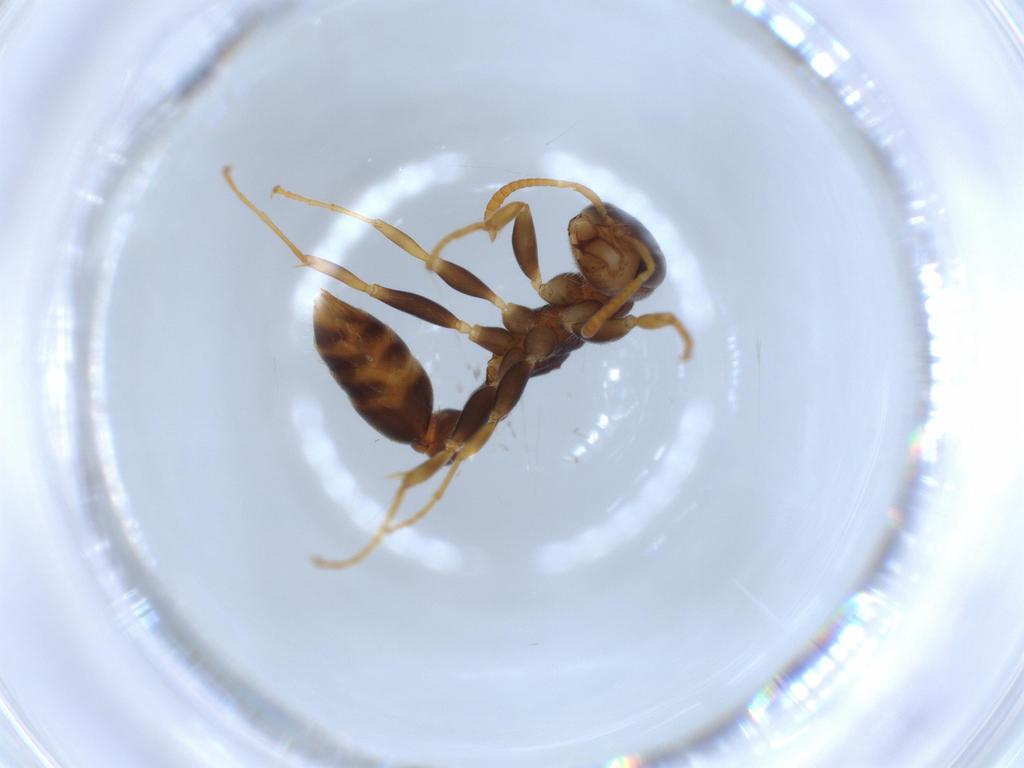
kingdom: Animalia
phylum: Arthropoda
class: Insecta
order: Hymenoptera
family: Formicidae
